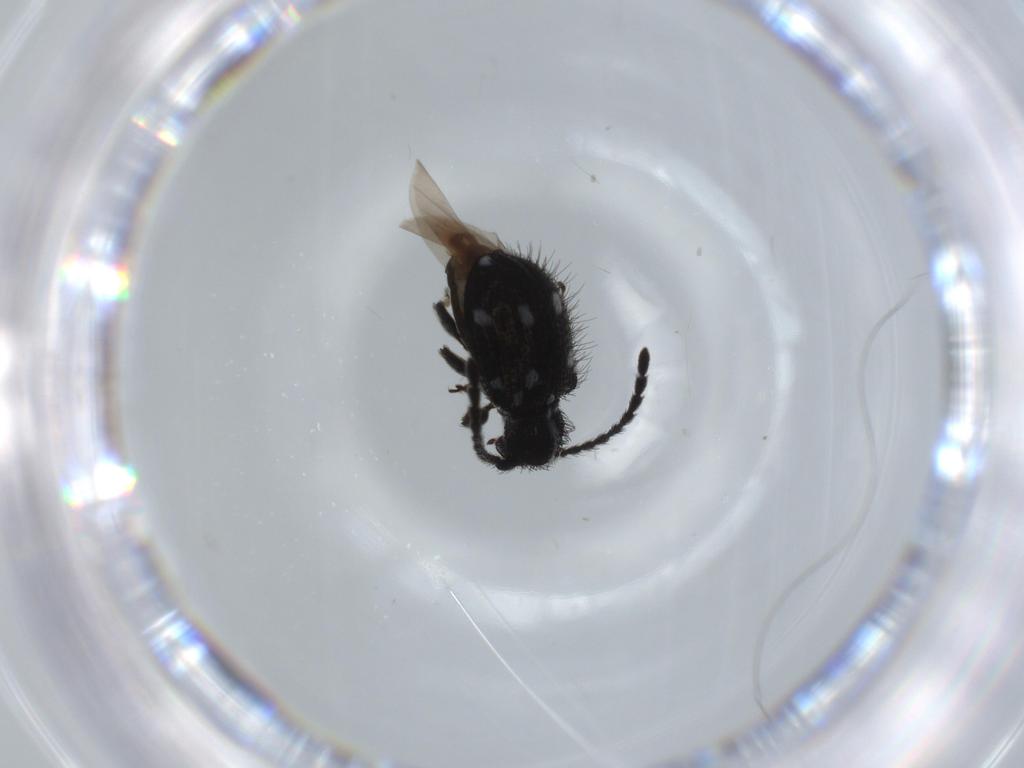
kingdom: Animalia
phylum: Arthropoda
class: Insecta
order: Coleoptera
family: Ptinidae
